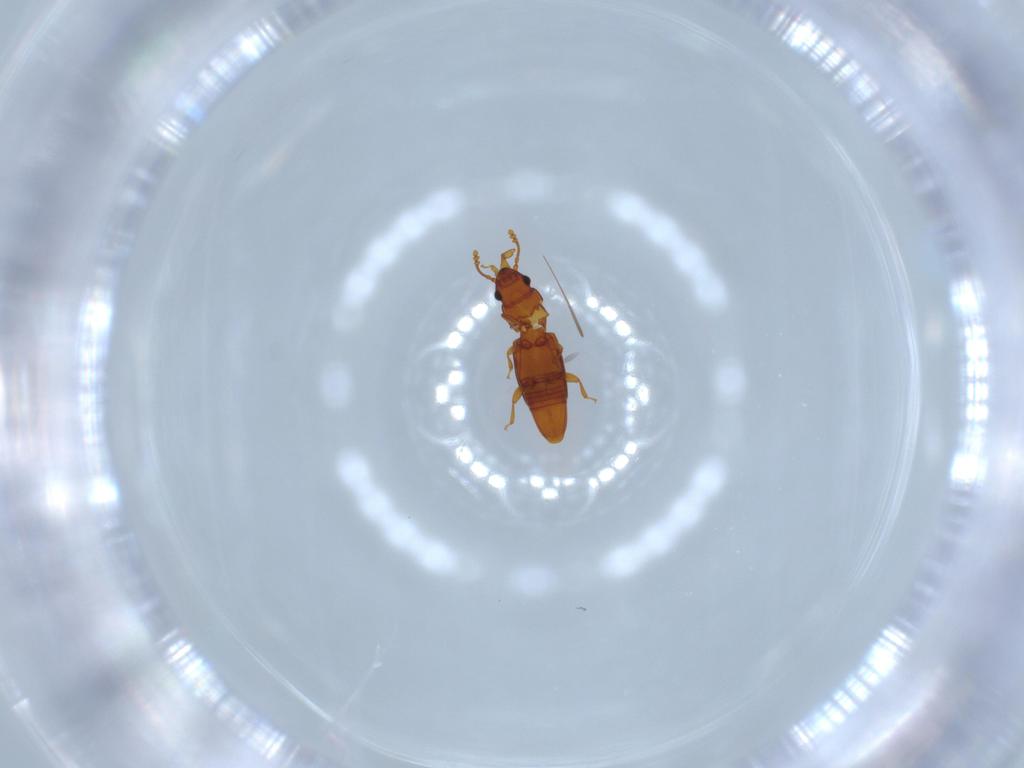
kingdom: Animalia
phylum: Arthropoda
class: Insecta
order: Coleoptera
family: Smicripidae
